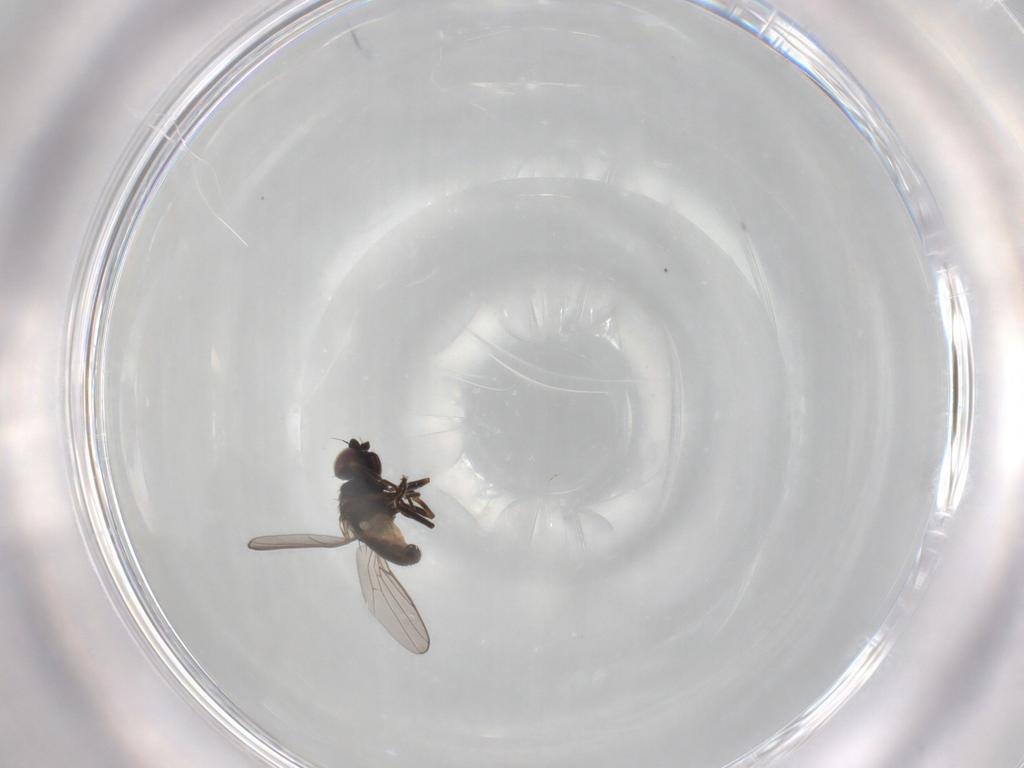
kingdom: Animalia
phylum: Arthropoda
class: Insecta
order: Diptera
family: Chloropidae
